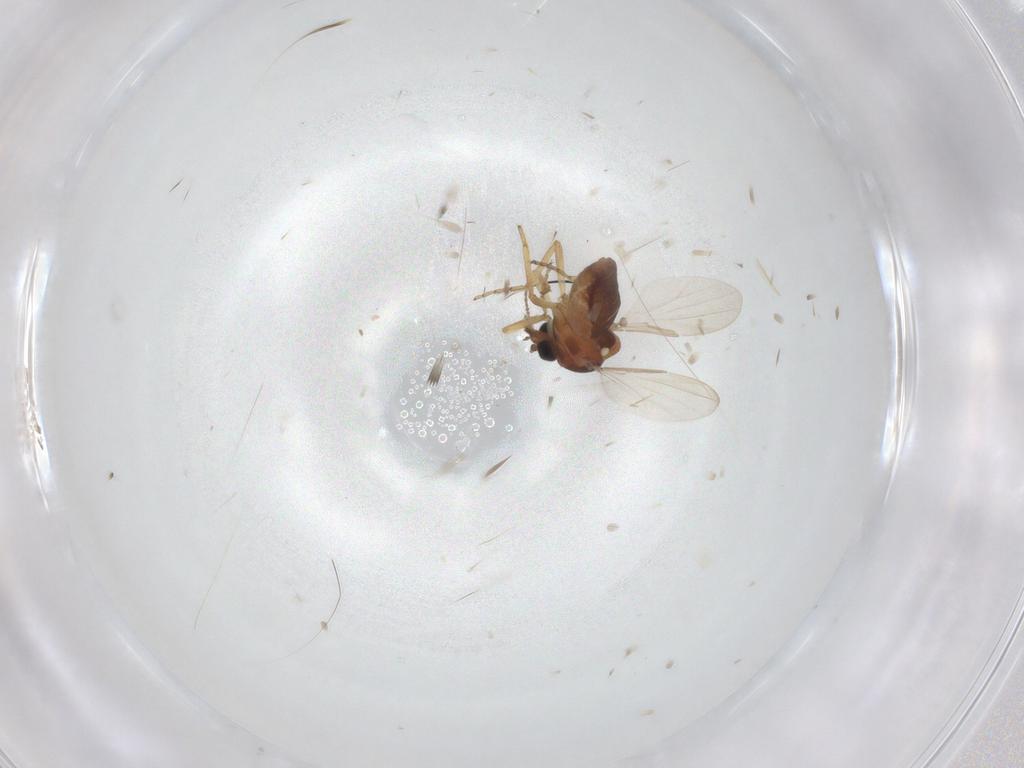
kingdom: Animalia
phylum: Arthropoda
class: Insecta
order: Diptera
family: Ceratopogonidae
